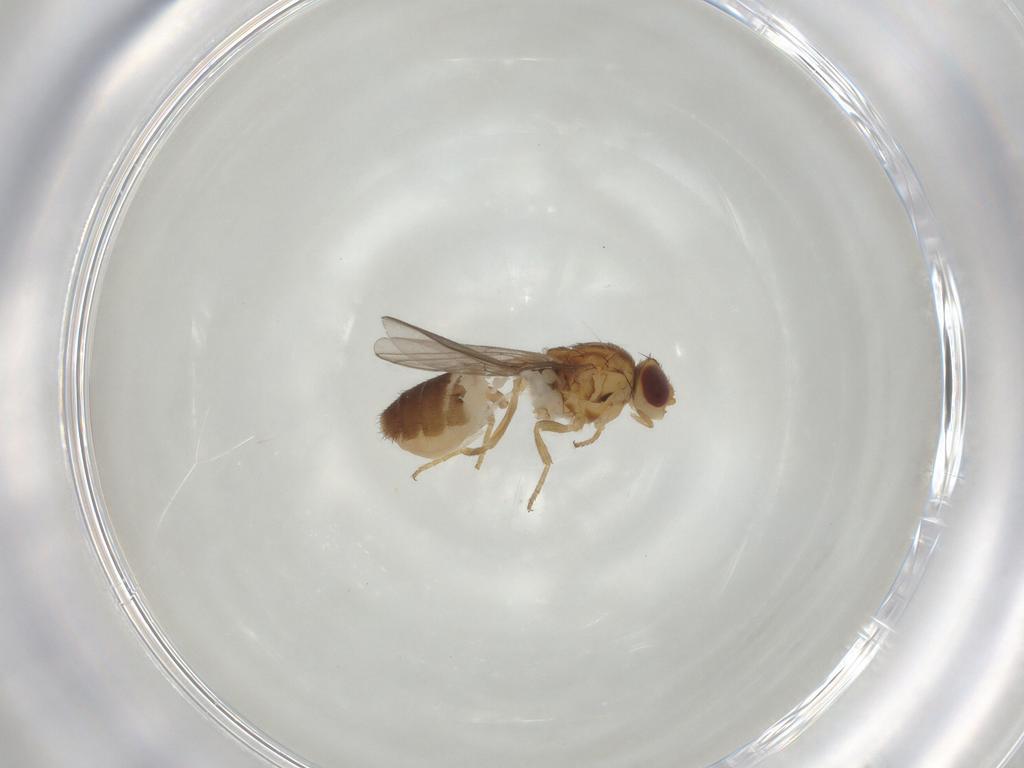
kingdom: Animalia
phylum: Arthropoda
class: Insecta
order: Diptera
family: Chloropidae
